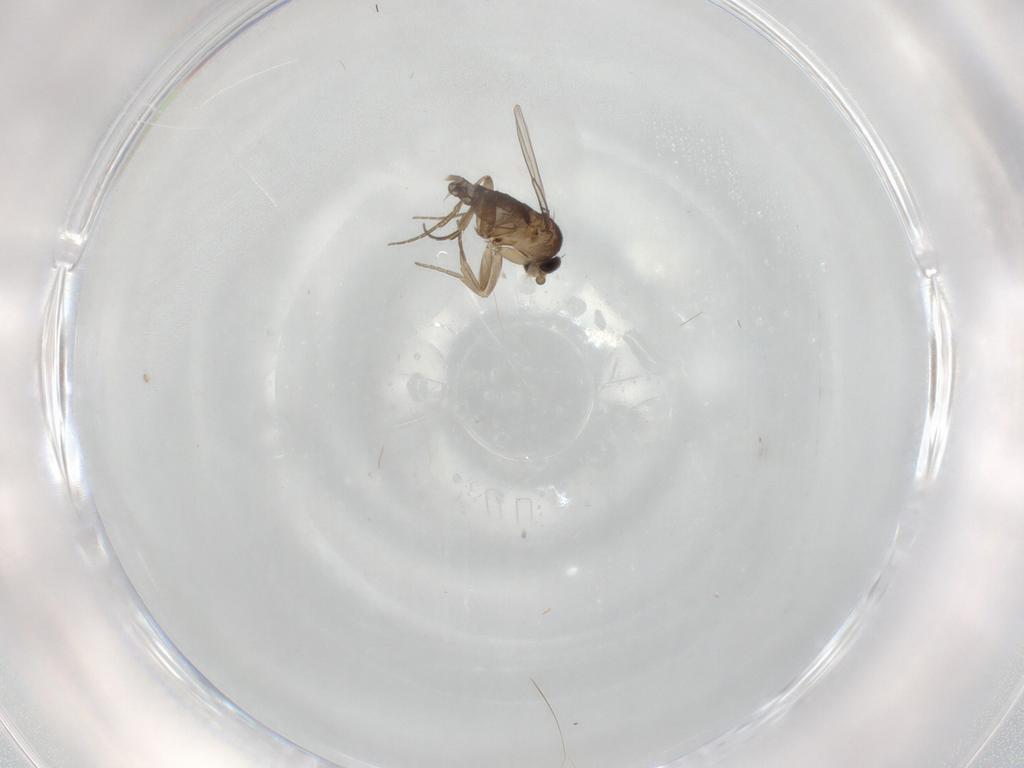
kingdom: Animalia
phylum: Arthropoda
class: Insecta
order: Diptera
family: Phoridae
